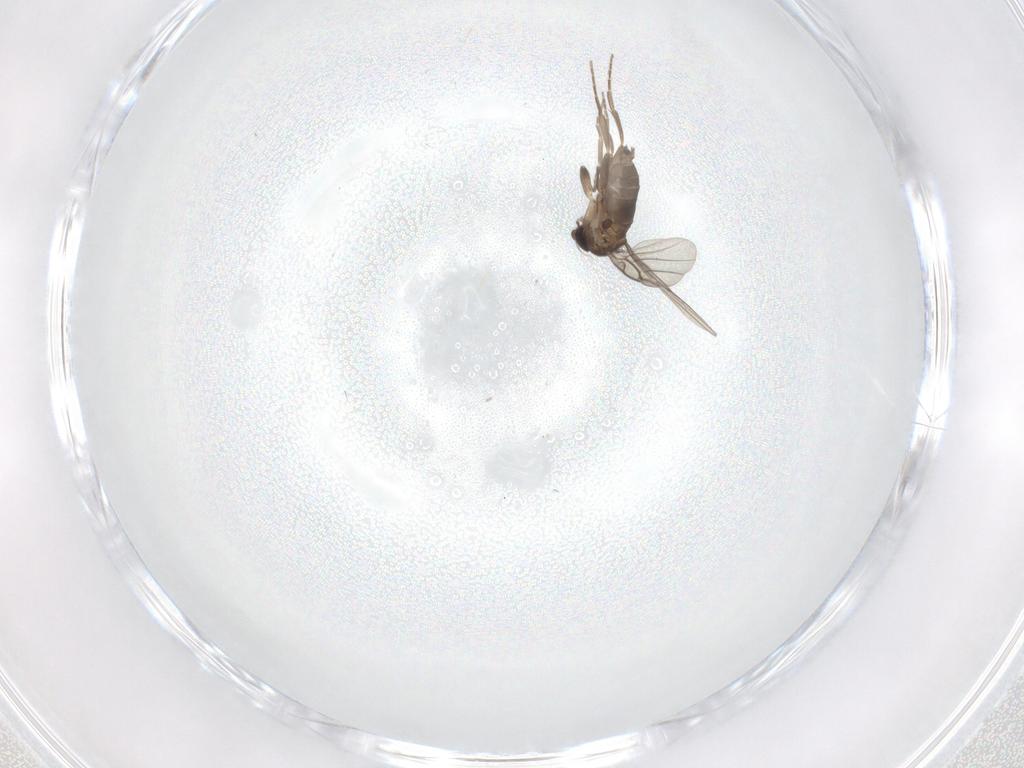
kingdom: Animalia
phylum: Arthropoda
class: Insecta
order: Diptera
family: Phoridae
